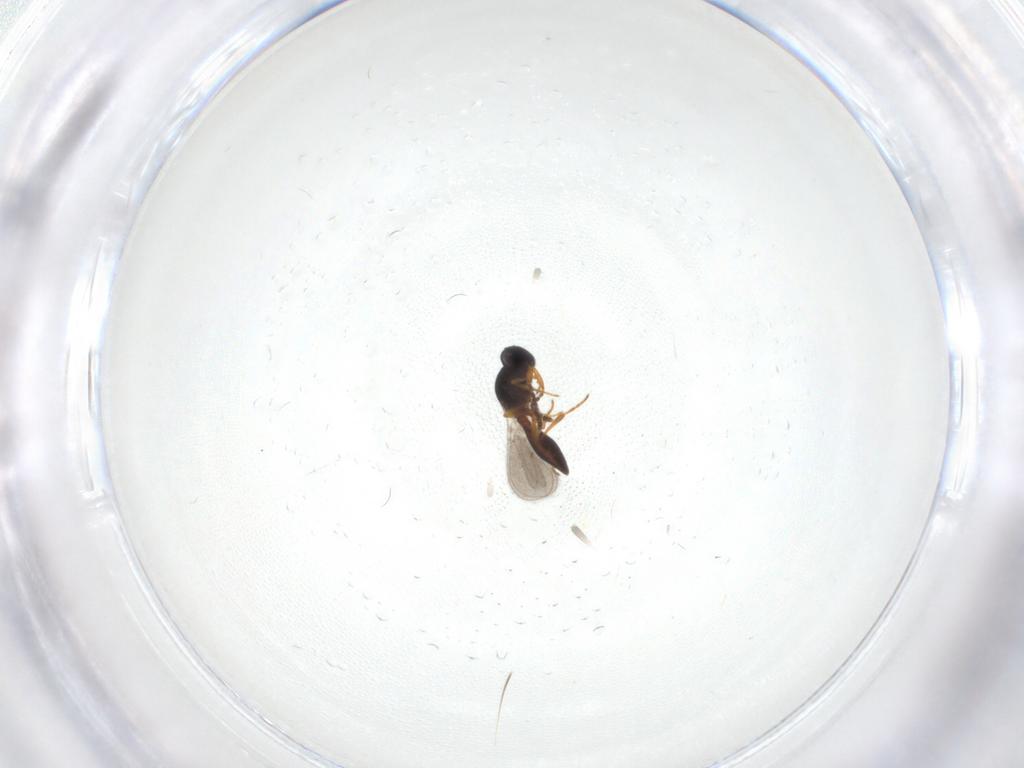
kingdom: Animalia
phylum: Arthropoda
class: Insecta
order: Hymenoptera
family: Platygastridae
